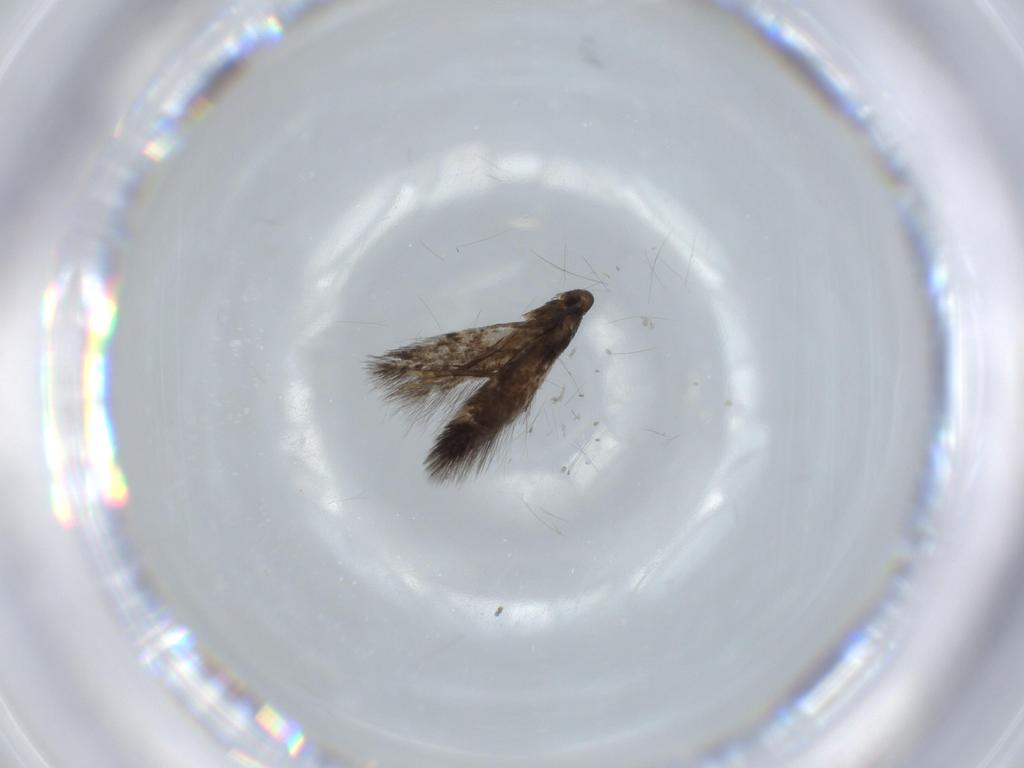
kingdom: Animalia
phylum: Arthropoda
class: Insecta
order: Lepidoptera
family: Heliozelidae
